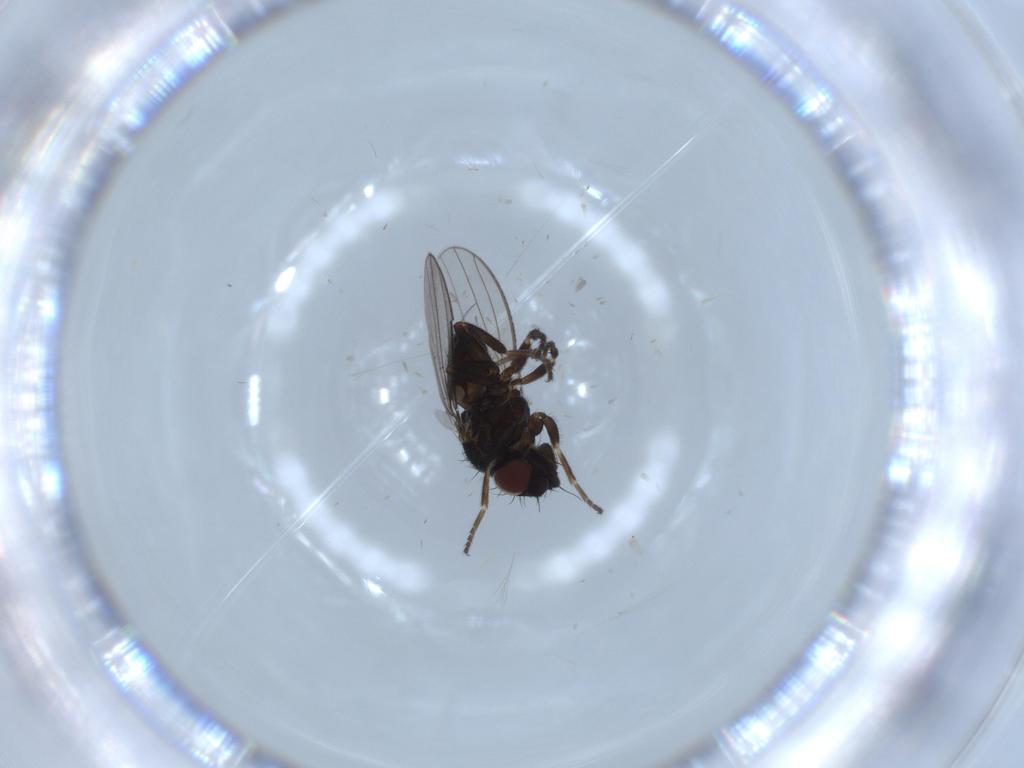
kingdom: Animalia
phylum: Arthropoda
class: Insecta
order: Diptera
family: Milichiidae
